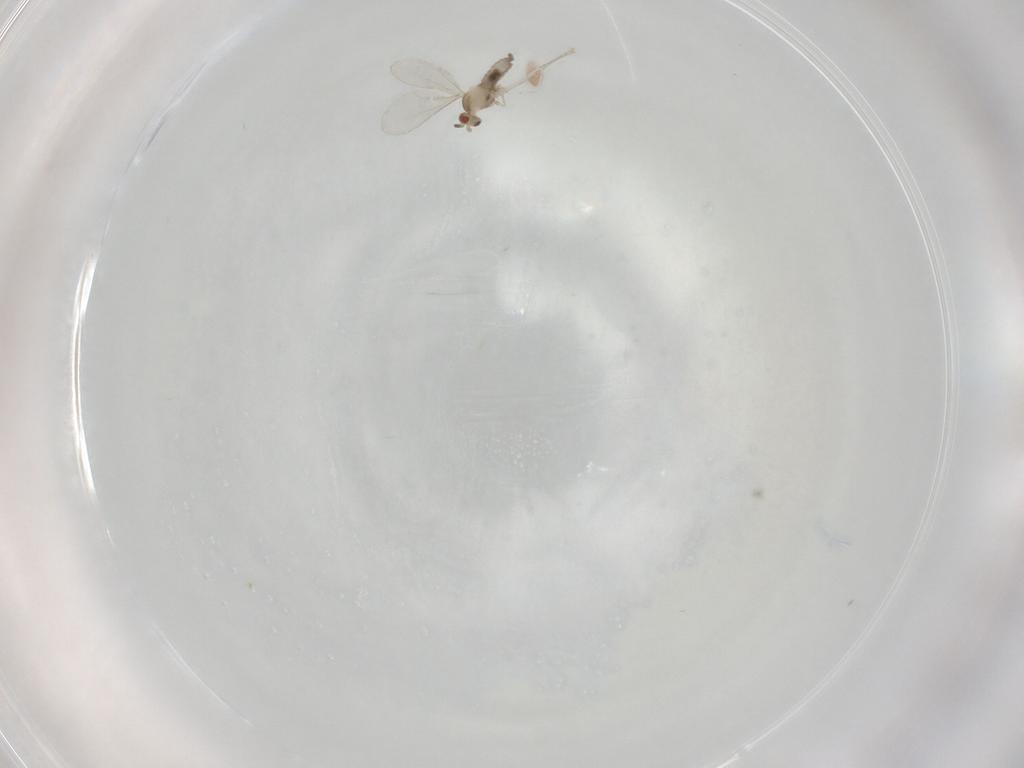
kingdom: Animalia
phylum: Arthropoda
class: Insecta
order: Diptera
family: Cecidomyiidae
